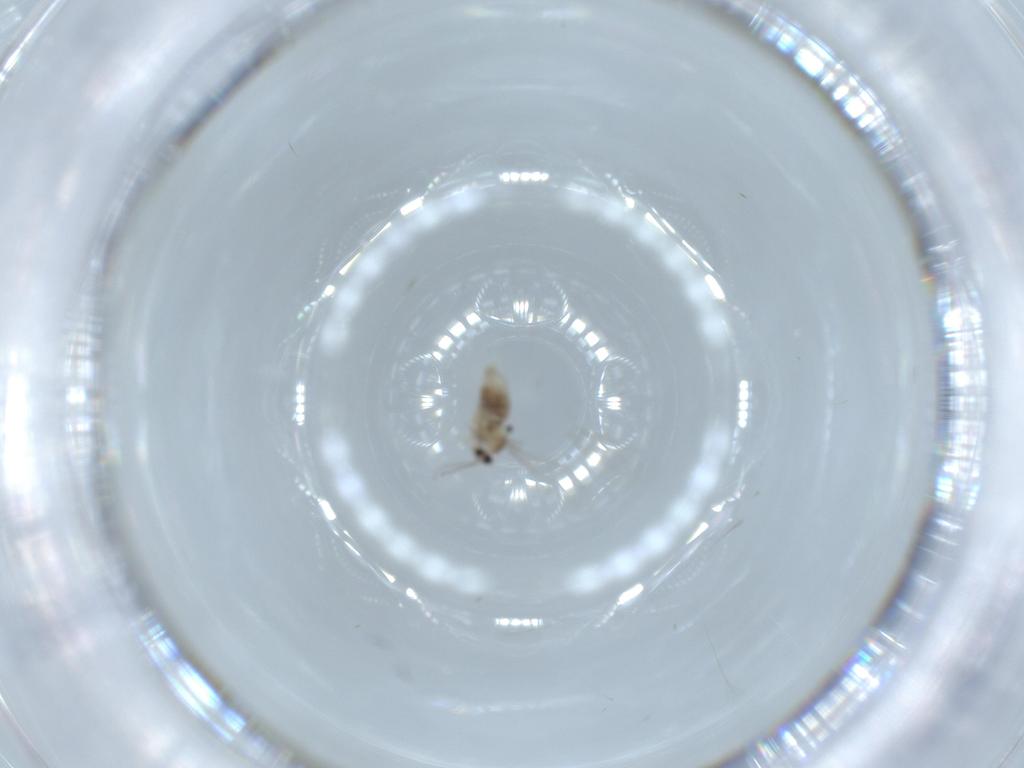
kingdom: Animalia
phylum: Arthropoda
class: Insecta
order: Diptera
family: Cecidomyiidae
